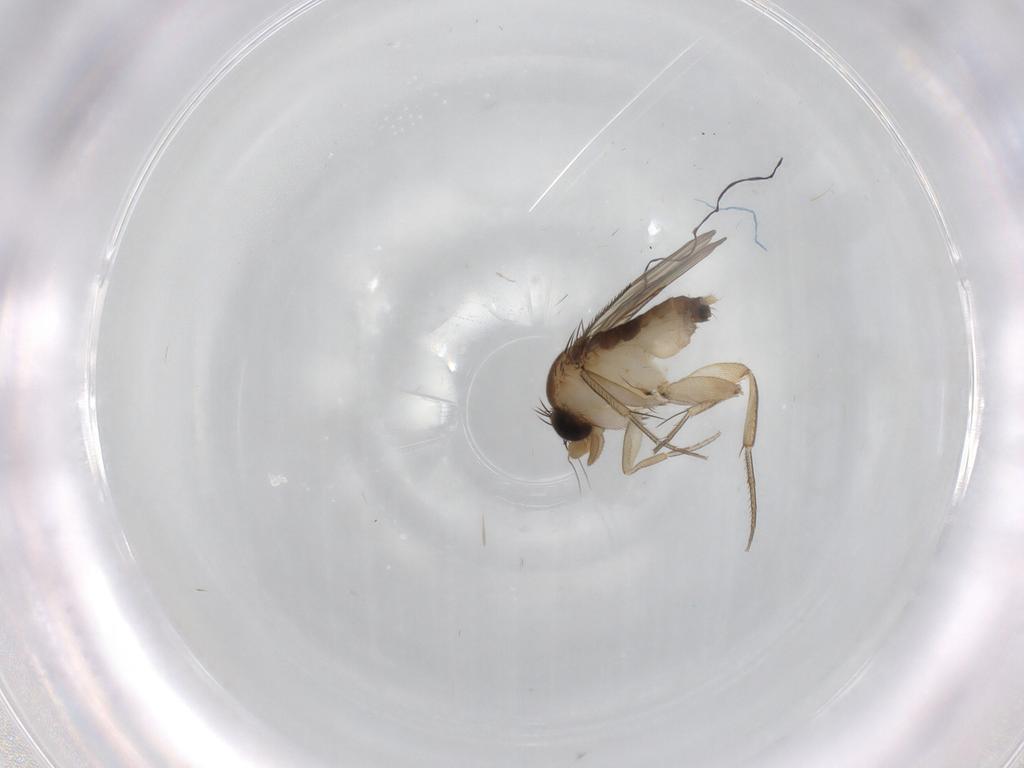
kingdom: Animalia
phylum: Arthropoda
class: Insecta
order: Diptera
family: Phoridae
